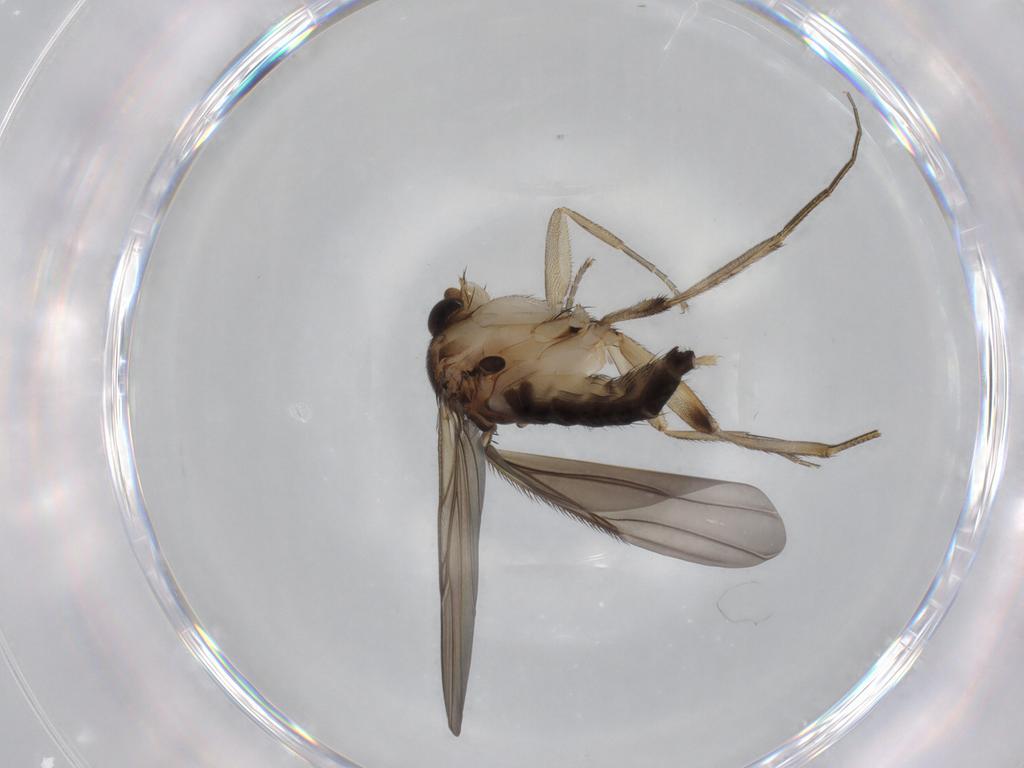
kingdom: Animalia
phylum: Arthropoda
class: Insecta
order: Diptera
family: Phoridae
